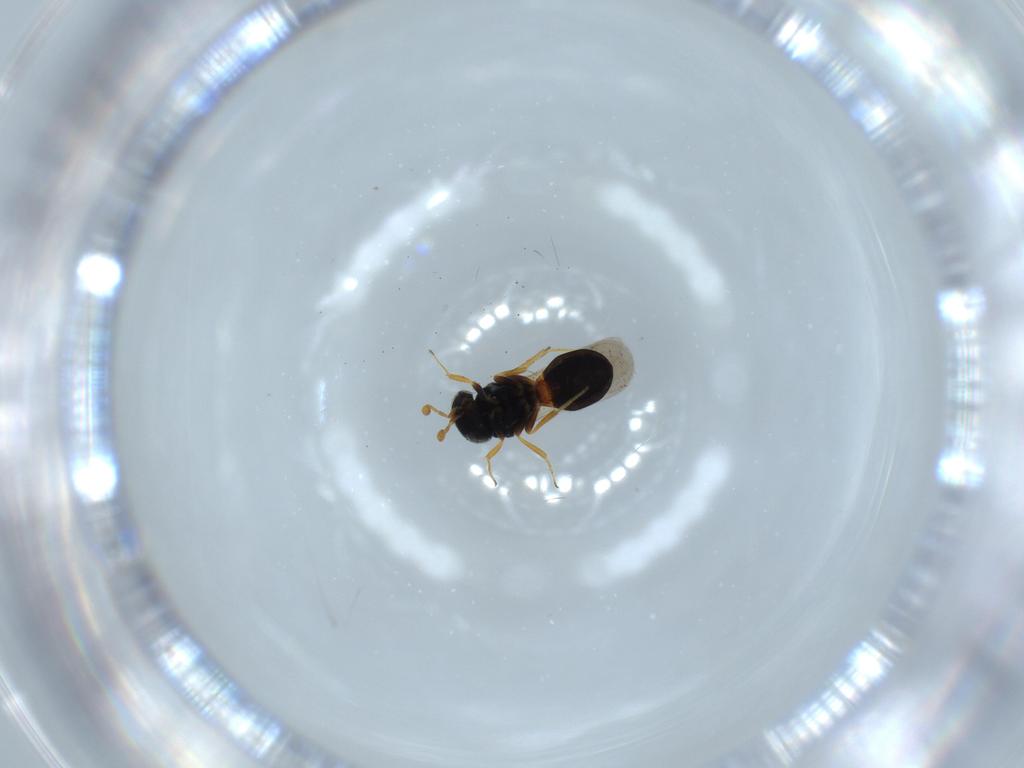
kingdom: Animalia
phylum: Arthropoda
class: Insecta
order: Hymenoptera
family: Scelionidae
